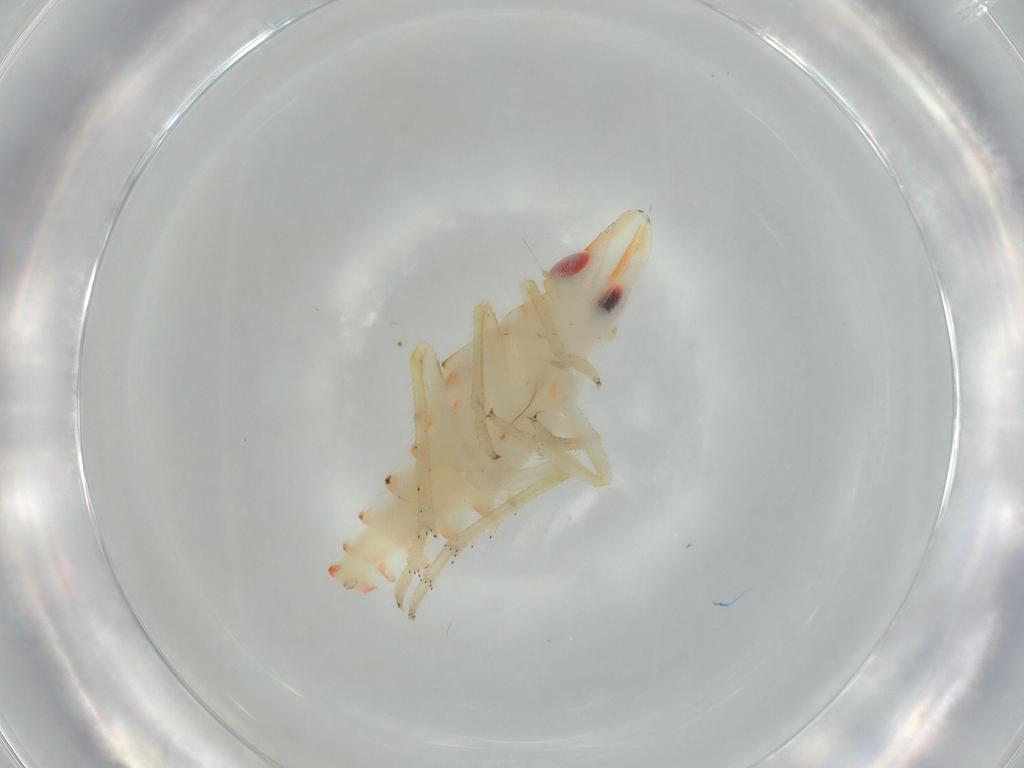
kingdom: Animalia
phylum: Arthropoda
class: Insecta
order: Hemiptera
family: Tropiduchidae
